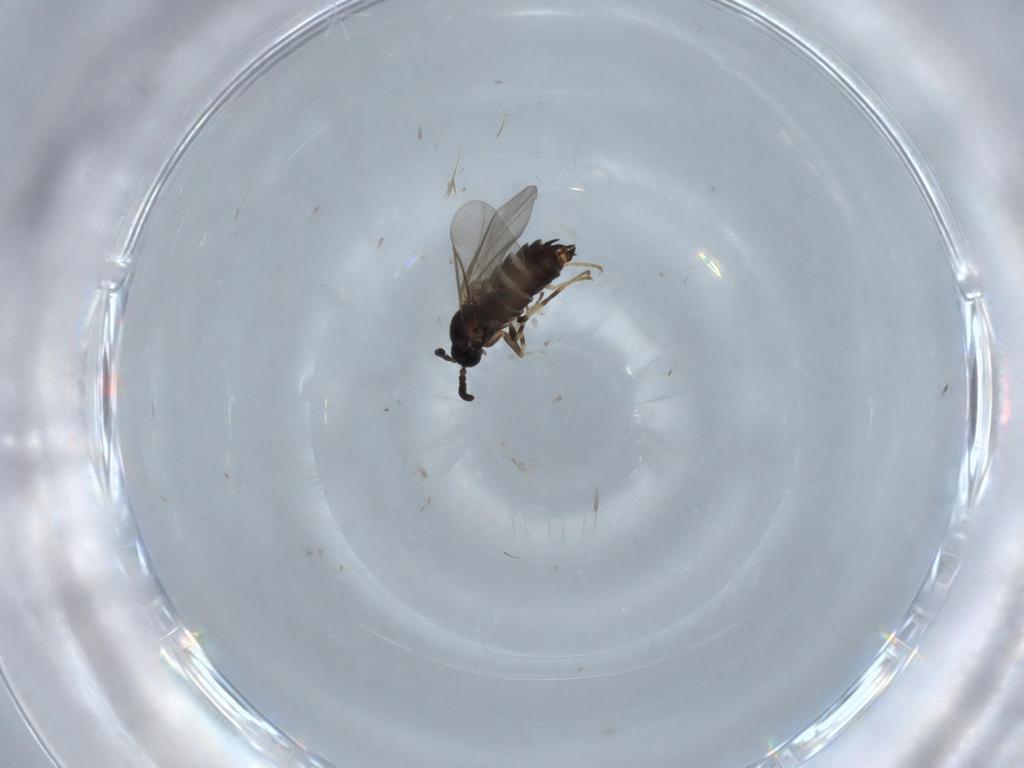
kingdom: Animalia
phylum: Arthropoda
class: Insecta
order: Diptera
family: Scatopsidae
